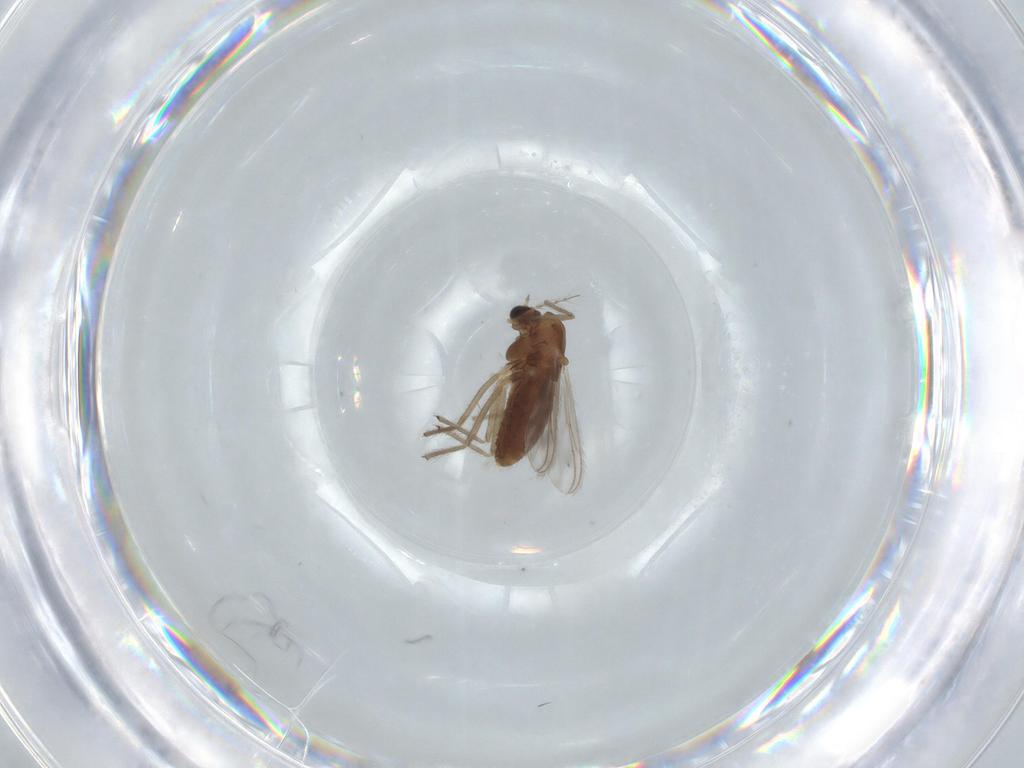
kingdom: Animalia
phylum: Arthropoda
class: Insecta
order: Diptera
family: Chironomidae
